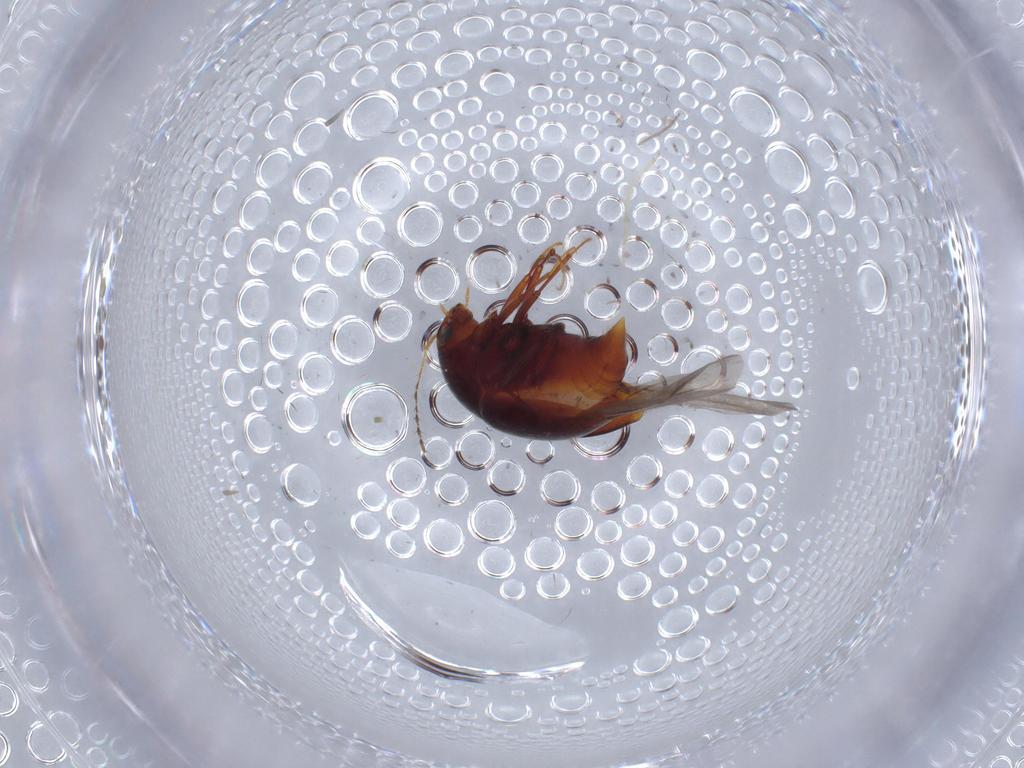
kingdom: Animalia
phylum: Arthropoda
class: Insecta
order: Coleoptera
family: Staphylinidae
